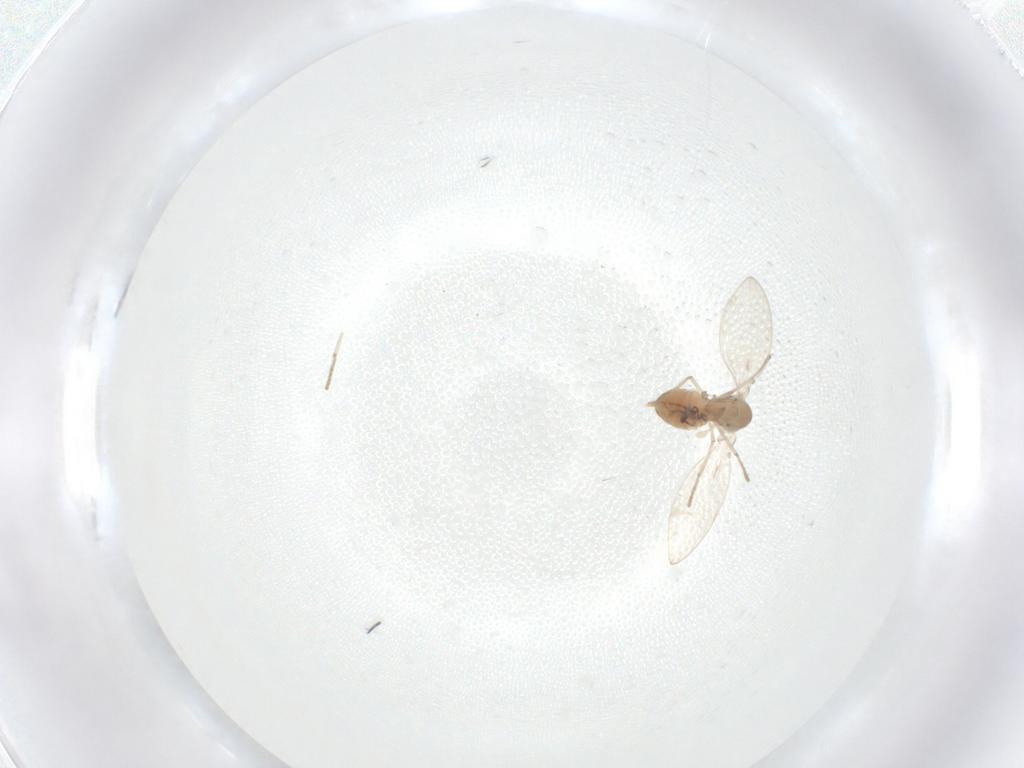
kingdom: Animalia
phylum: Arthropoda
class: Insecta
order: Diptera
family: Psychodidae
